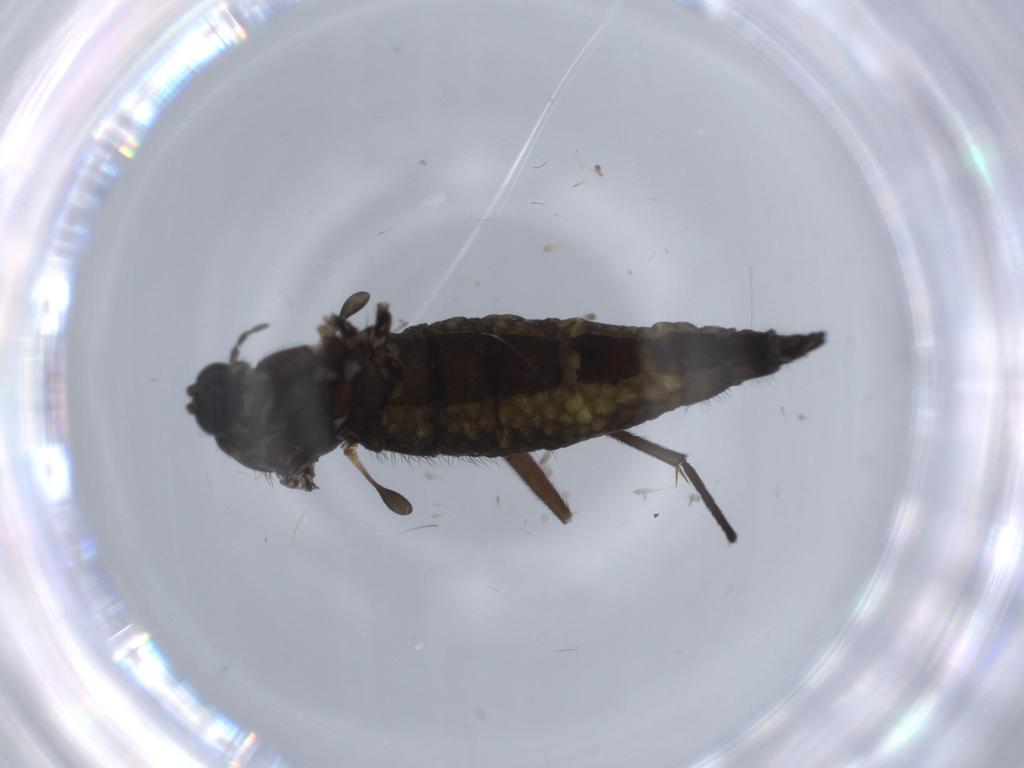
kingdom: Animalia
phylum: Arthropoda
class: Insecta
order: Diptera
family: Sciaridae
